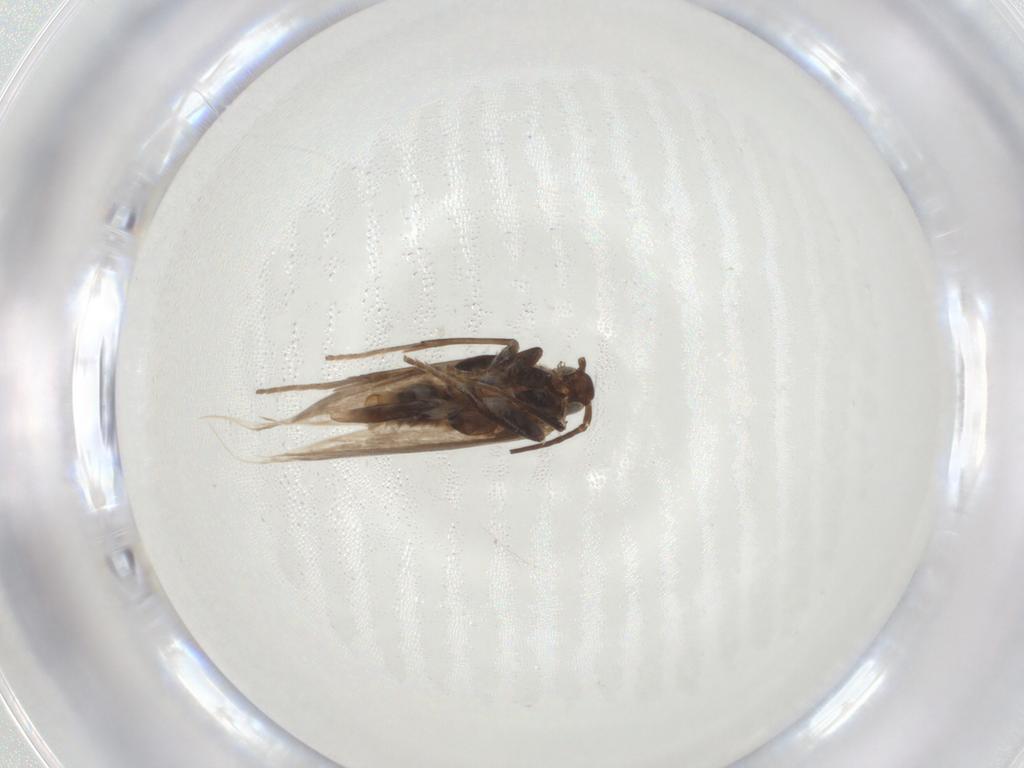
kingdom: Animalia
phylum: Arthropoda
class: Insecta
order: Lepidoptera
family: Coleophoridae
